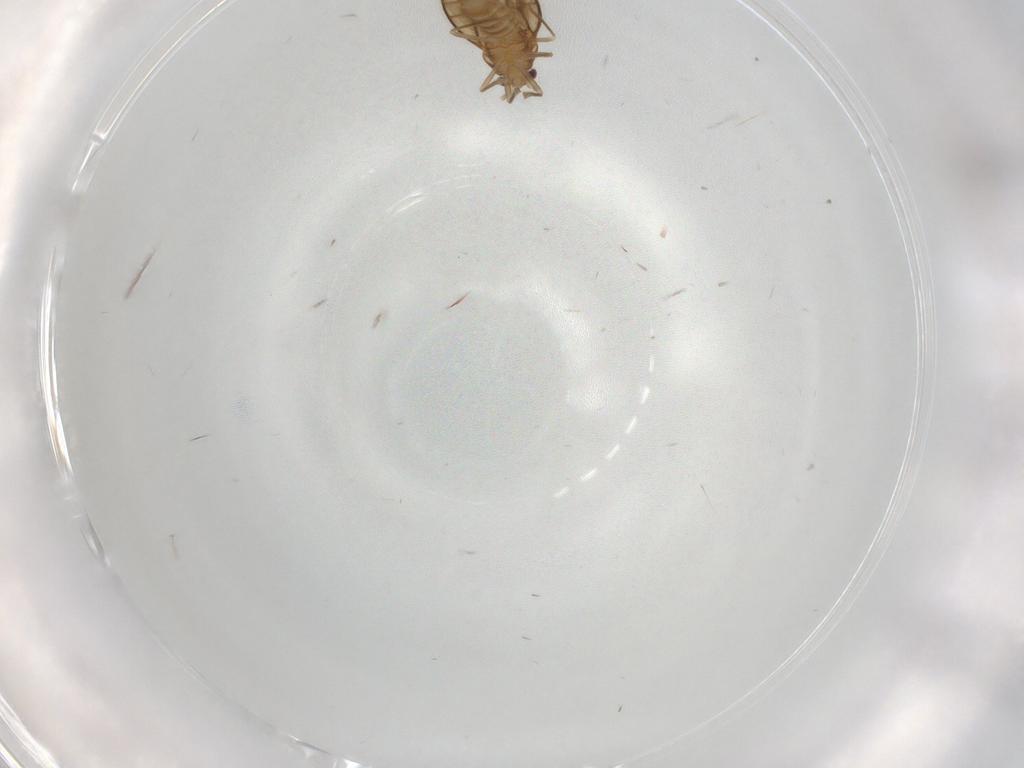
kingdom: Animalia
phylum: Arthropoda
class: Insecta
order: Hemiptera
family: Schizopteridae
